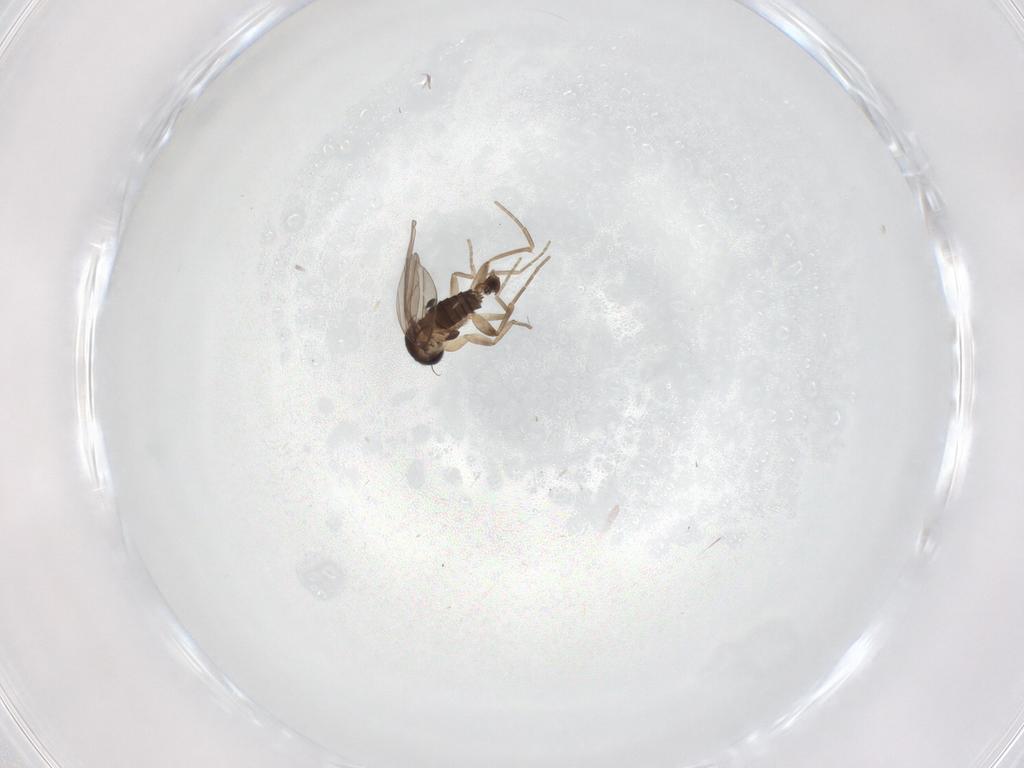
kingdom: Animalia
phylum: Arthropoda
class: Insecta
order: Diptera
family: Phoridae
